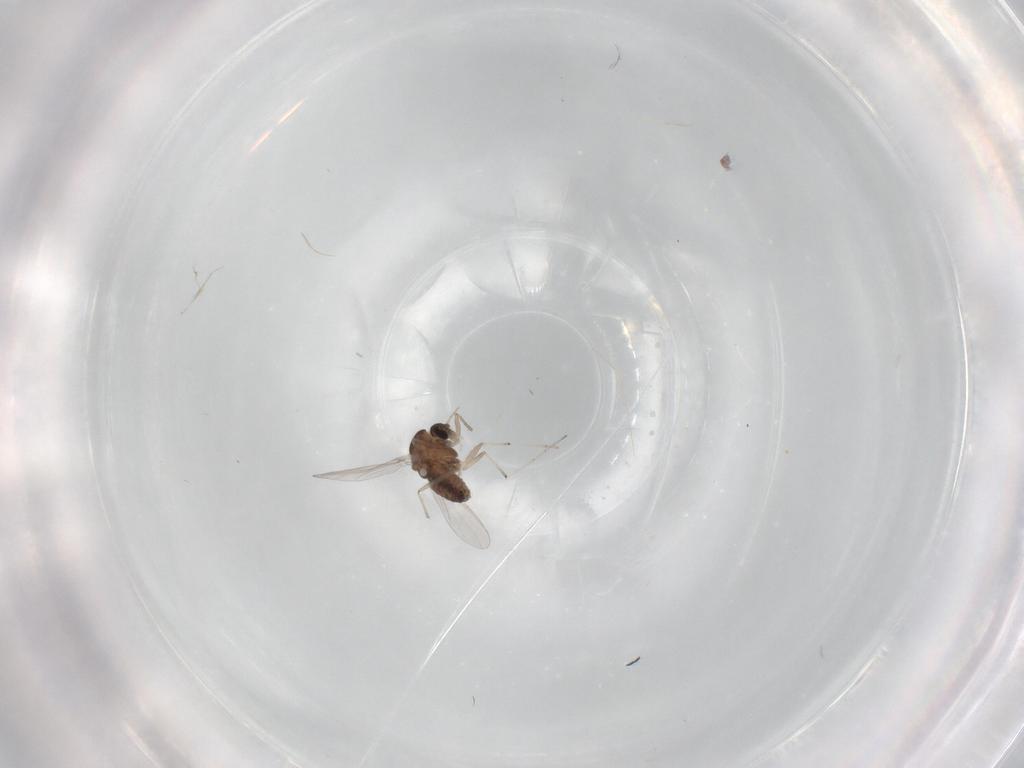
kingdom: Animalia
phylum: Arthropoda
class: Insecta
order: Diptera
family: Chironomidae
